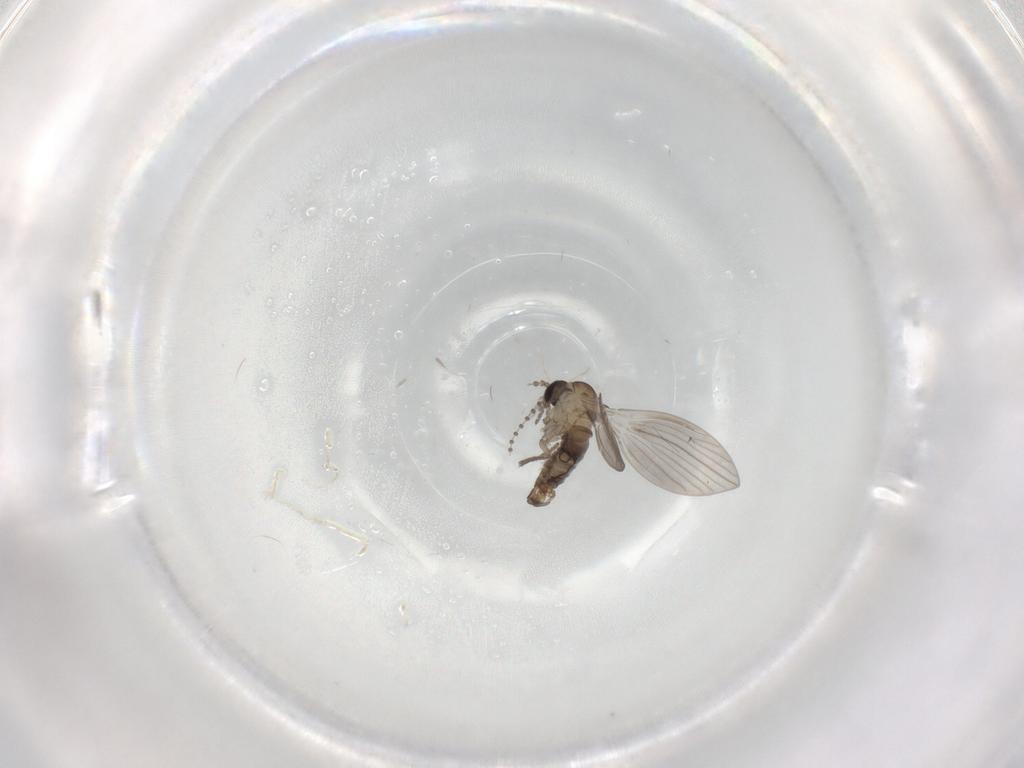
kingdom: Animalia
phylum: Arthropoda
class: Insecta
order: Diptera
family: Psychodidae
